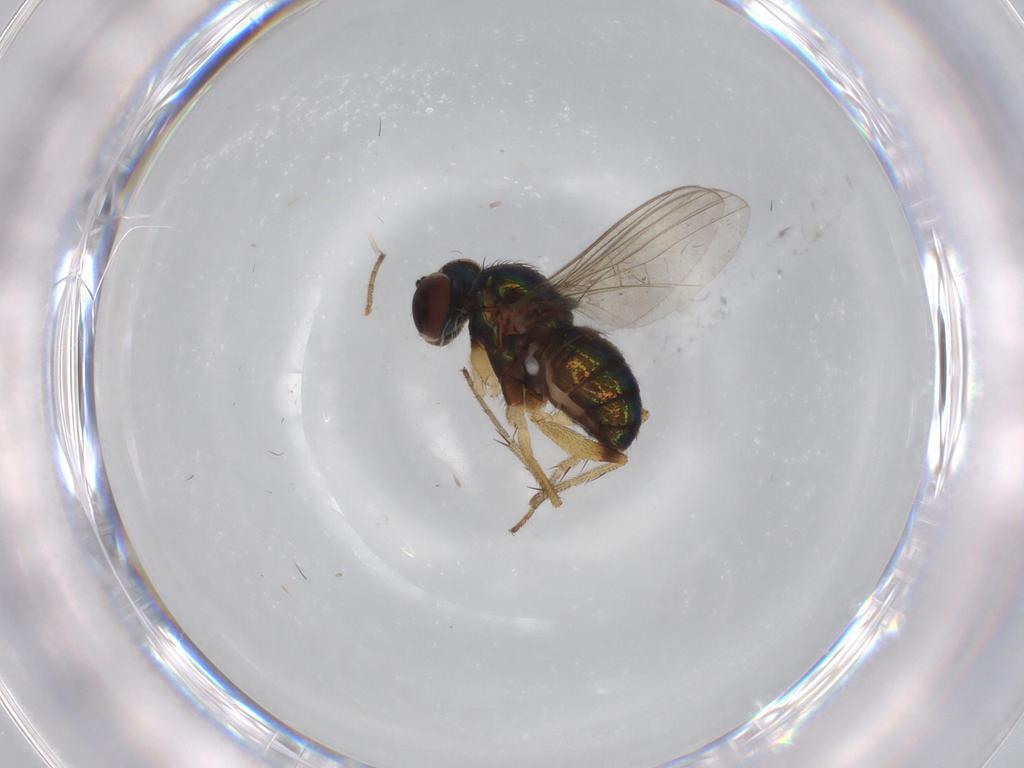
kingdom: Animalia
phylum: Arthropoda
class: Insecta
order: Diptera
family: Dolichopodidae
